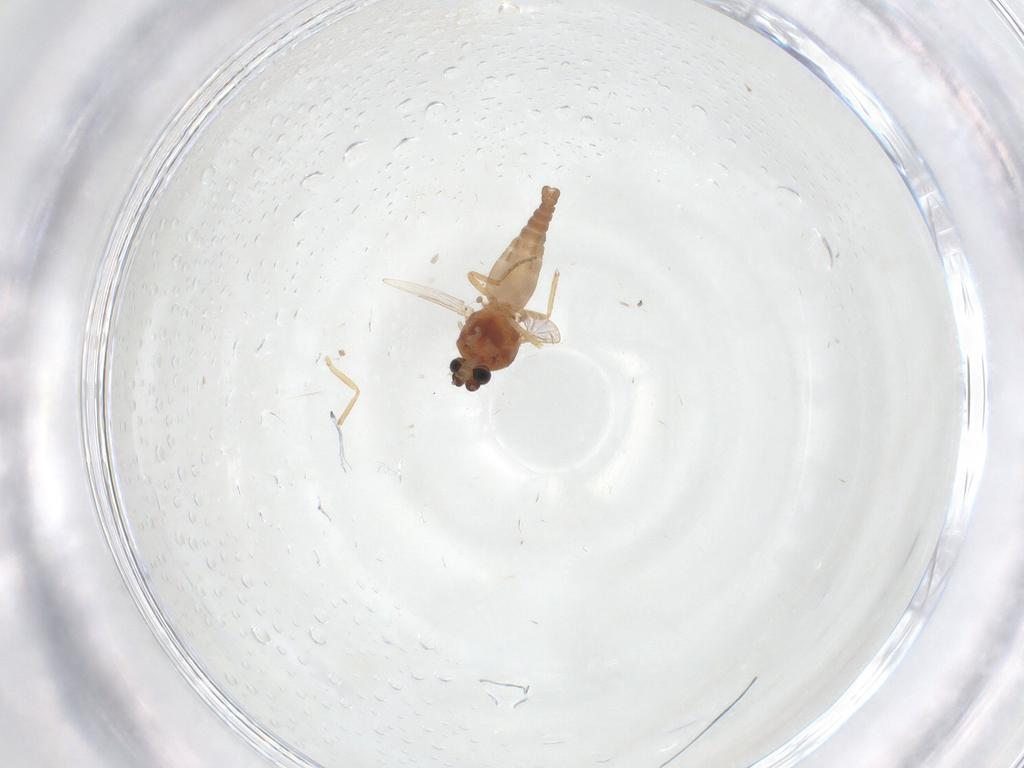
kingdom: Animalia
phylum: Arthropoda
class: Insecta
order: Diptera
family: Ceratopogonidae
